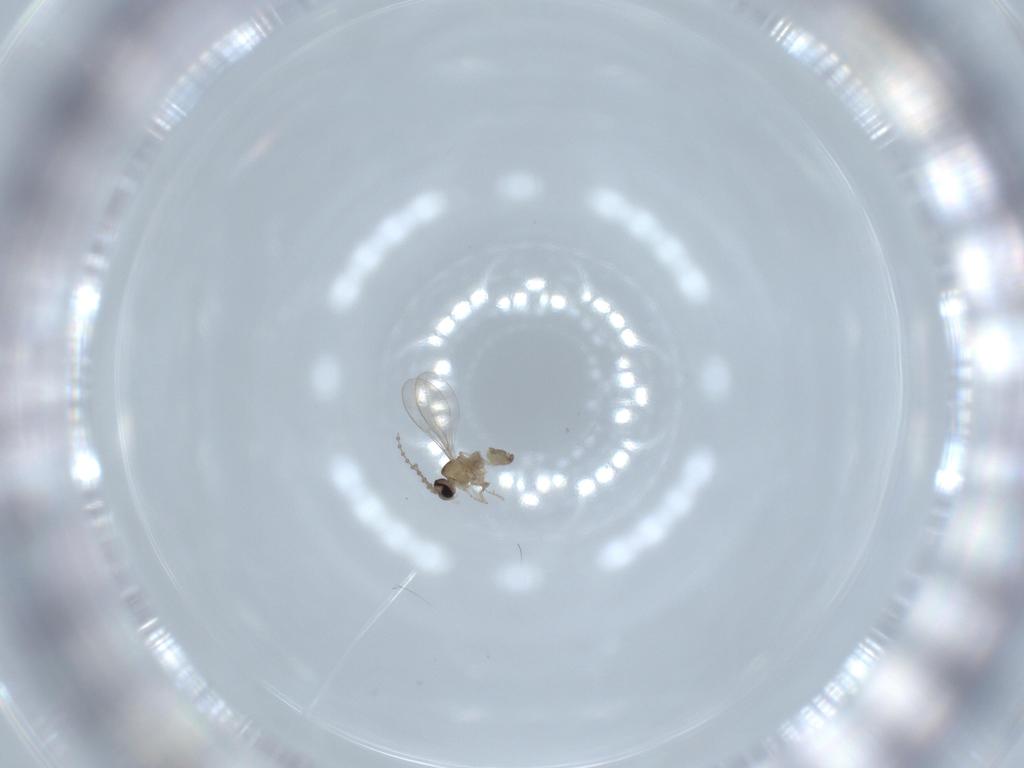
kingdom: Animalia
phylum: Arthropoda
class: Insecta
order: Diptera
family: Cecidomyiidae
